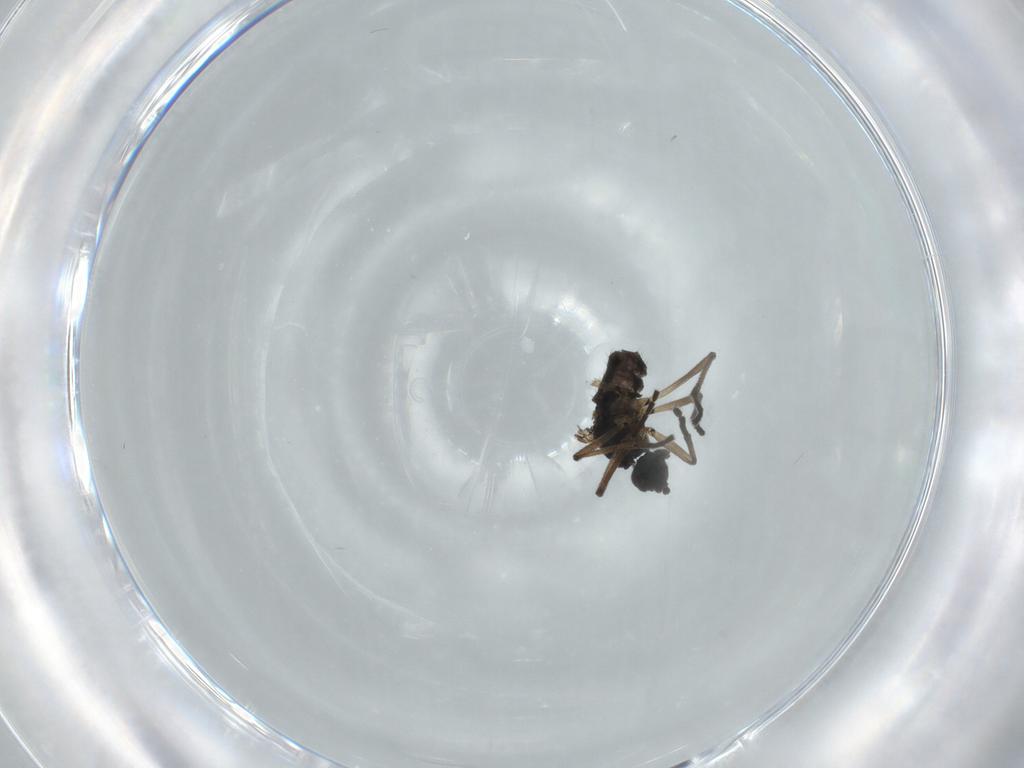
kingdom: Animalia
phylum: Arthropoda
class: Insecta
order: Diptera
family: Sciaridae
